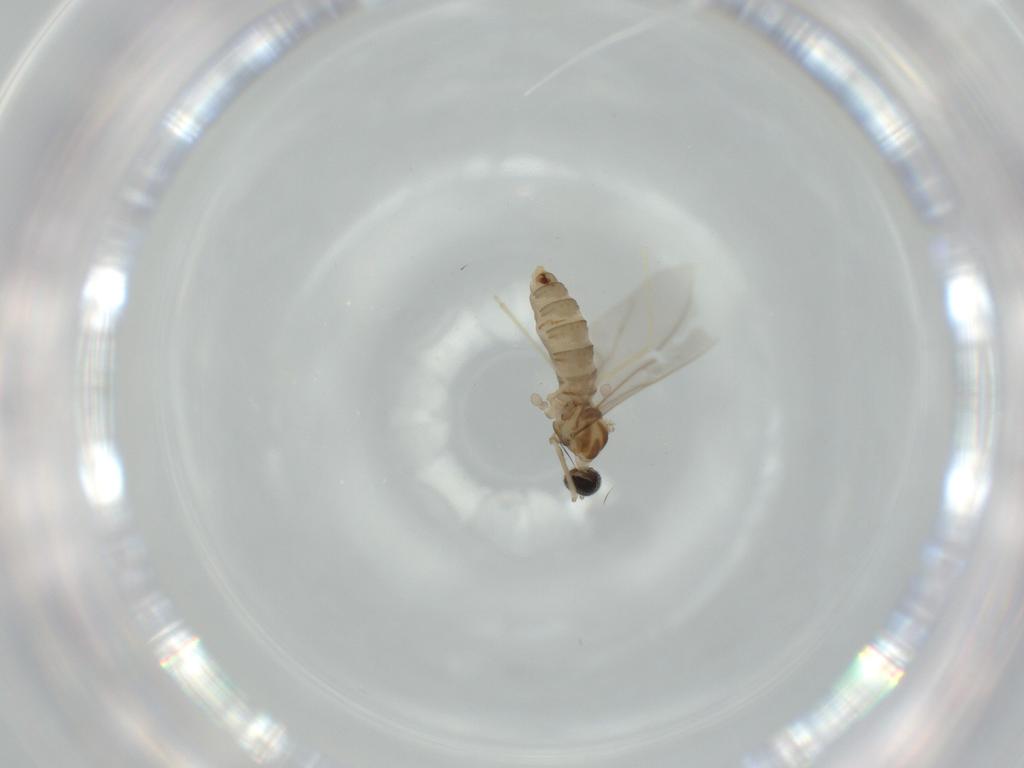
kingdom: Animalia
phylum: Arthropoda
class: Insecta
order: Diptera
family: Cecidomyiidae
